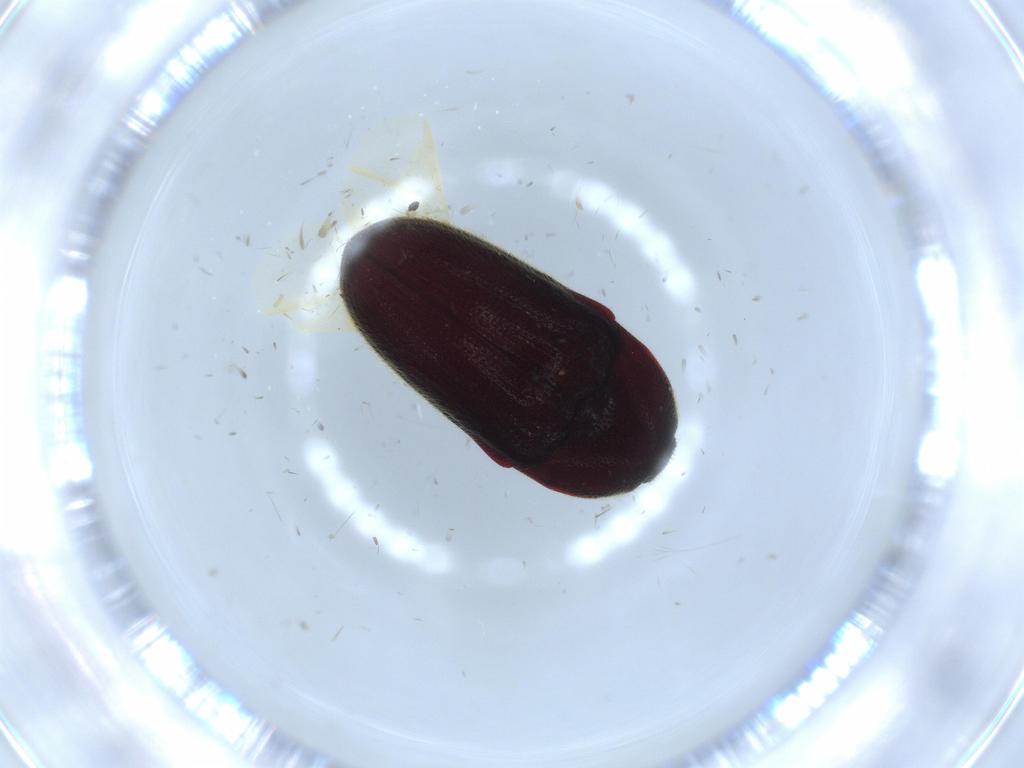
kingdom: Animalia
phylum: Arthropoda
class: Insecta
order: Coleoptera
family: Throscidae
